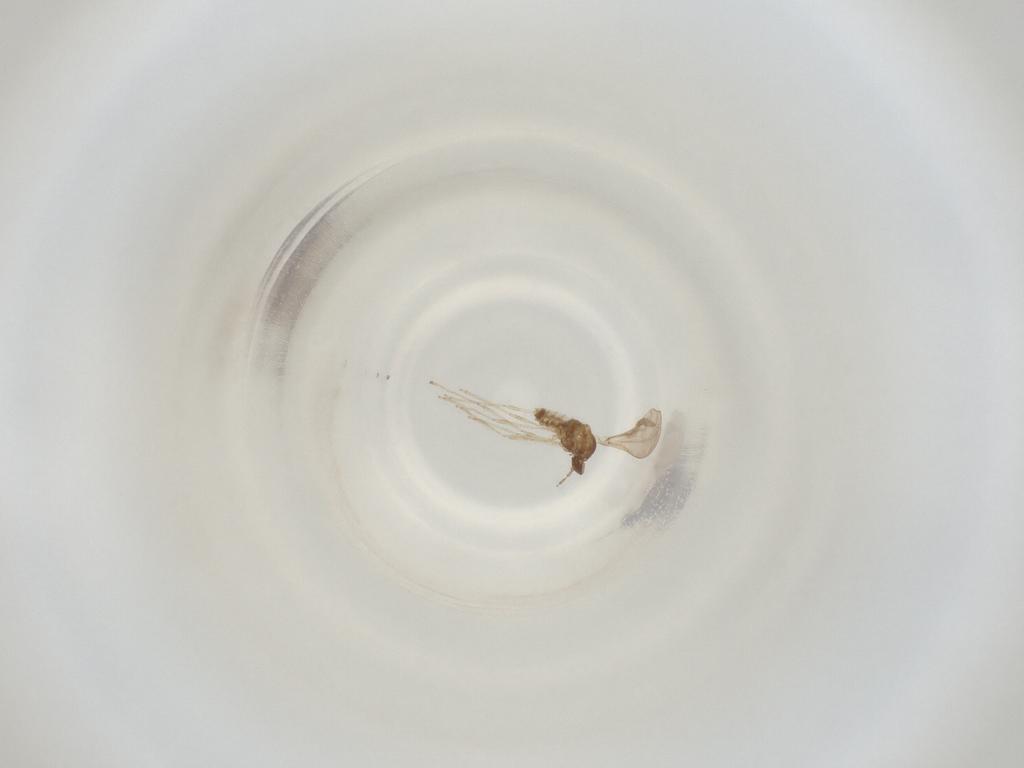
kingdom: Animalia
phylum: Arthropoda
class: Insecta
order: Diptera
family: Cecidomyiidae
